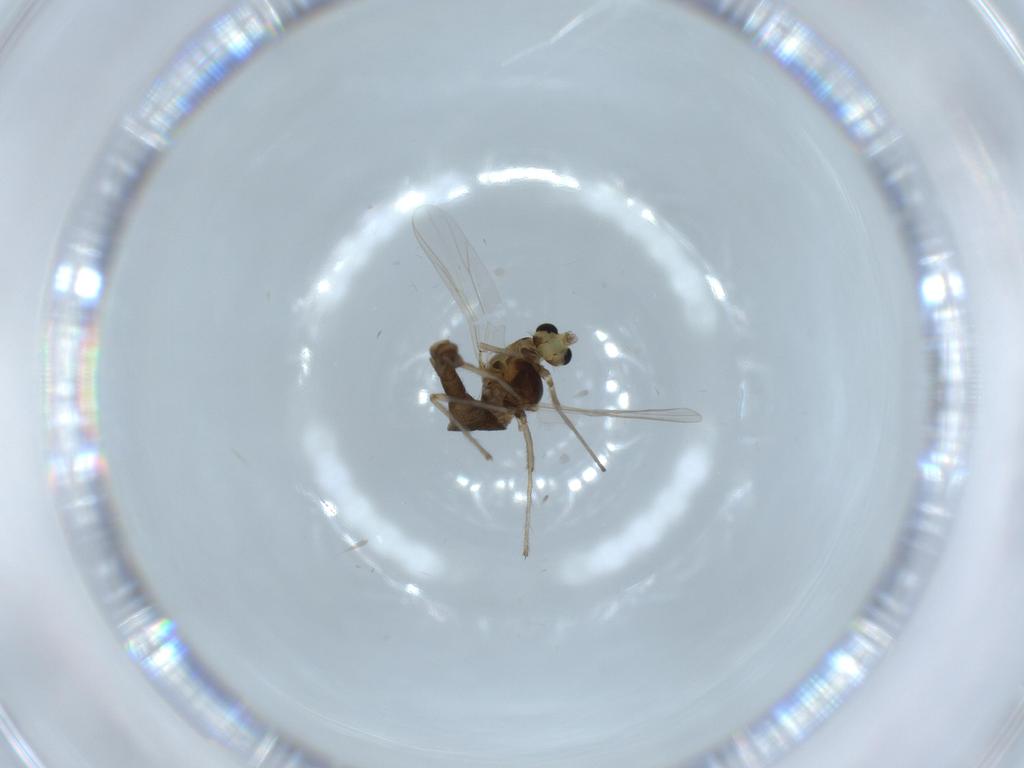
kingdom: Animalia
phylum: Arthropoda
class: Insecta
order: Diptera
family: Chironomidae
